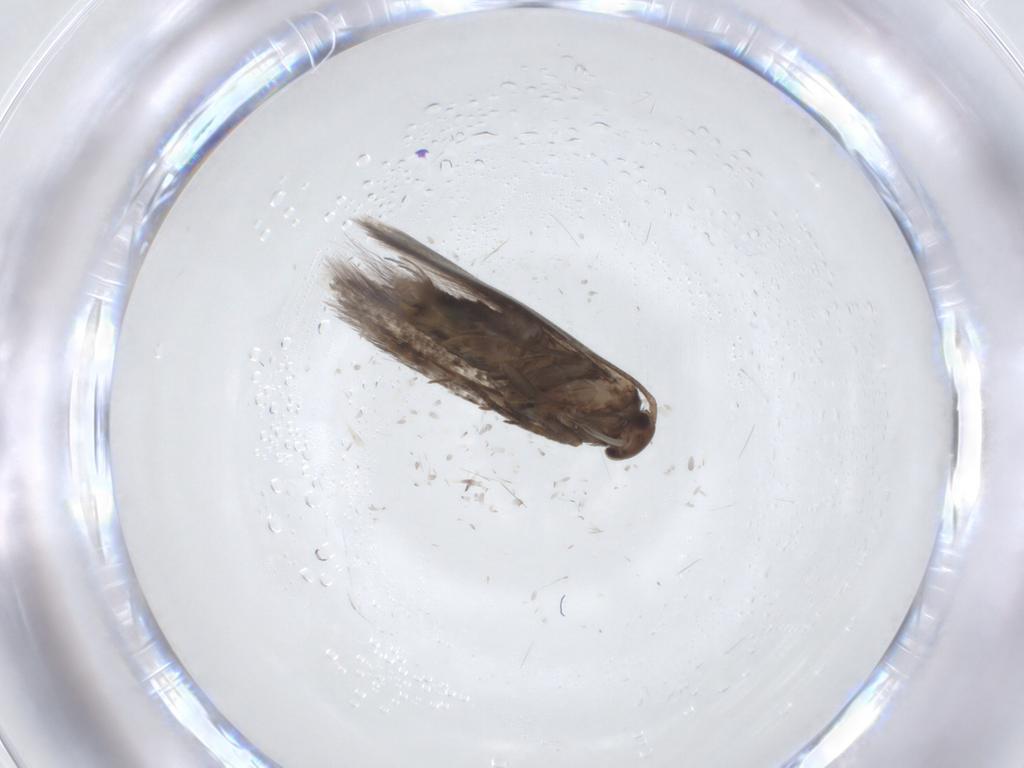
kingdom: Animalia
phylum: Arthropoda
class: Insecta
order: Lepidoptera
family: Elachistidae
